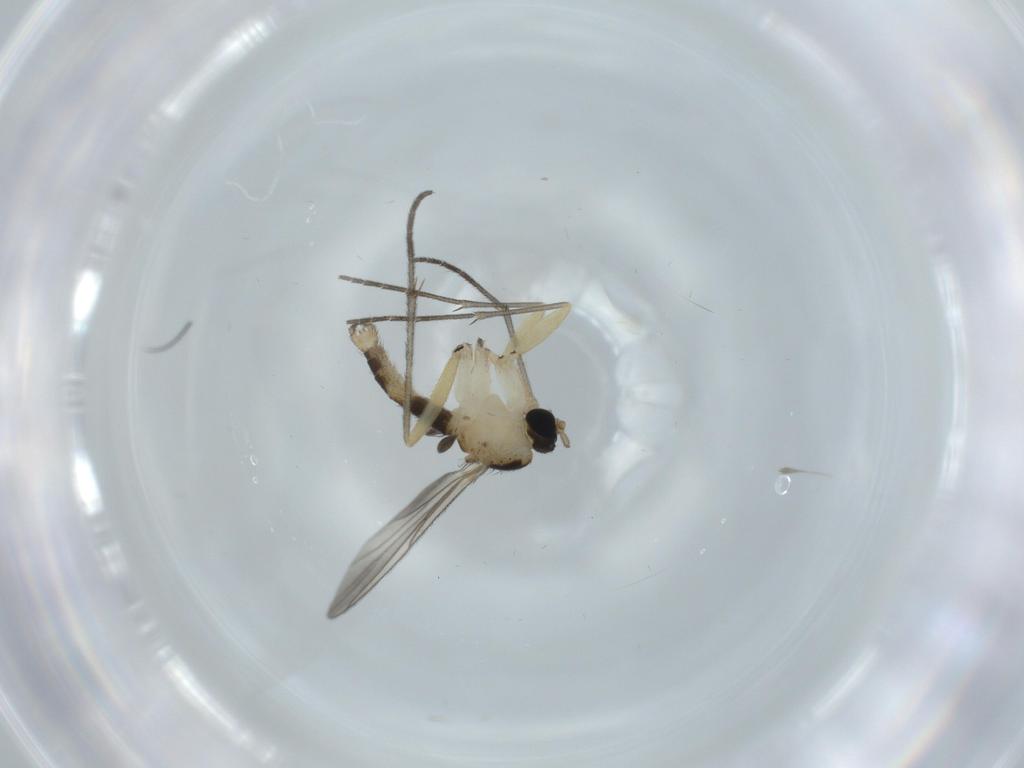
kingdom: Animalia
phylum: Arthropoda
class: Insecta
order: Diptera
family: Sciaridae
